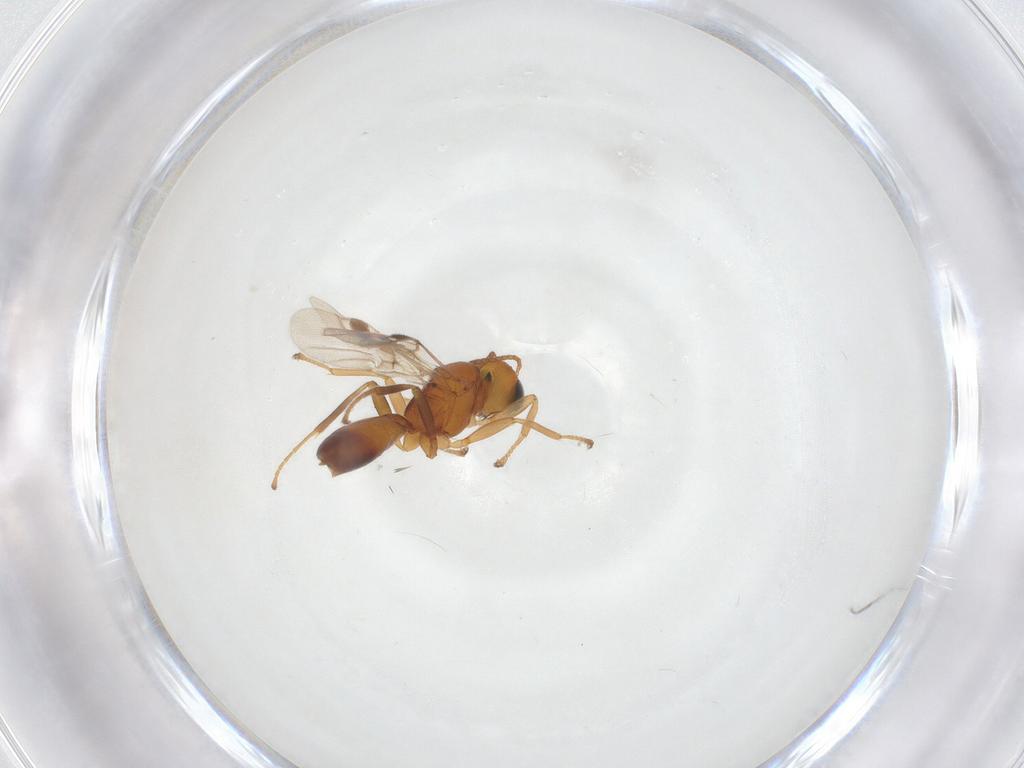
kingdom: Animalia
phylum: Arthropoda
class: Insecta
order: Hymenoptera
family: Braconidae
